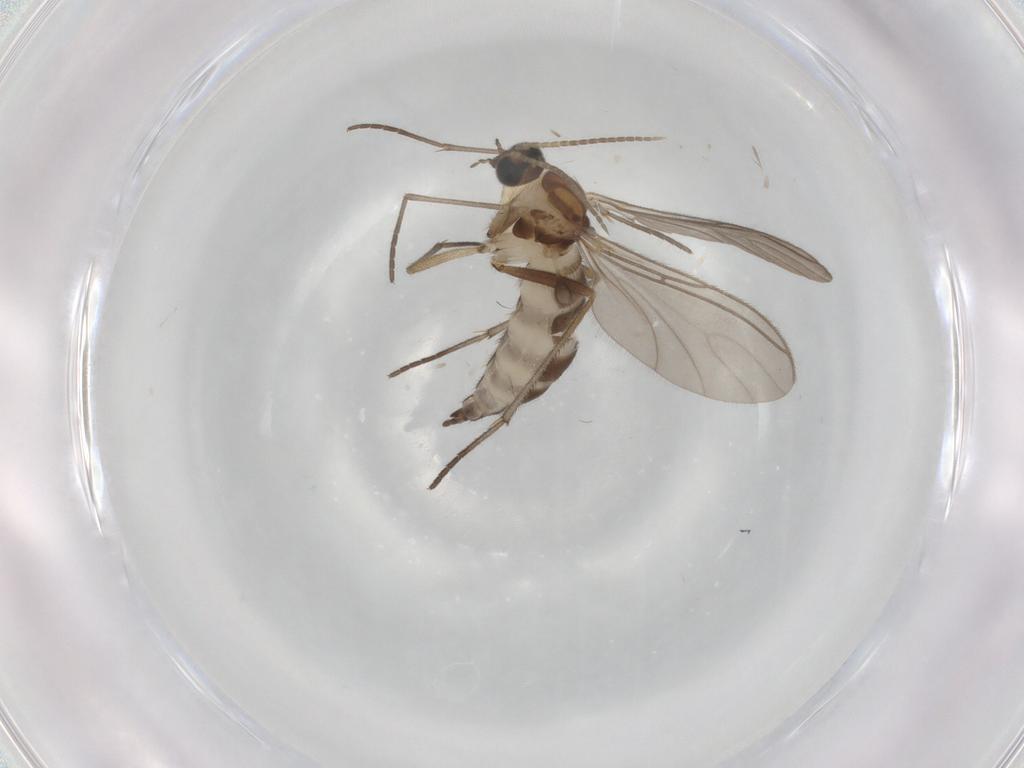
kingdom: Animalia
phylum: Arthropoda
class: Insecta
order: Diptera
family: Sciaridae
